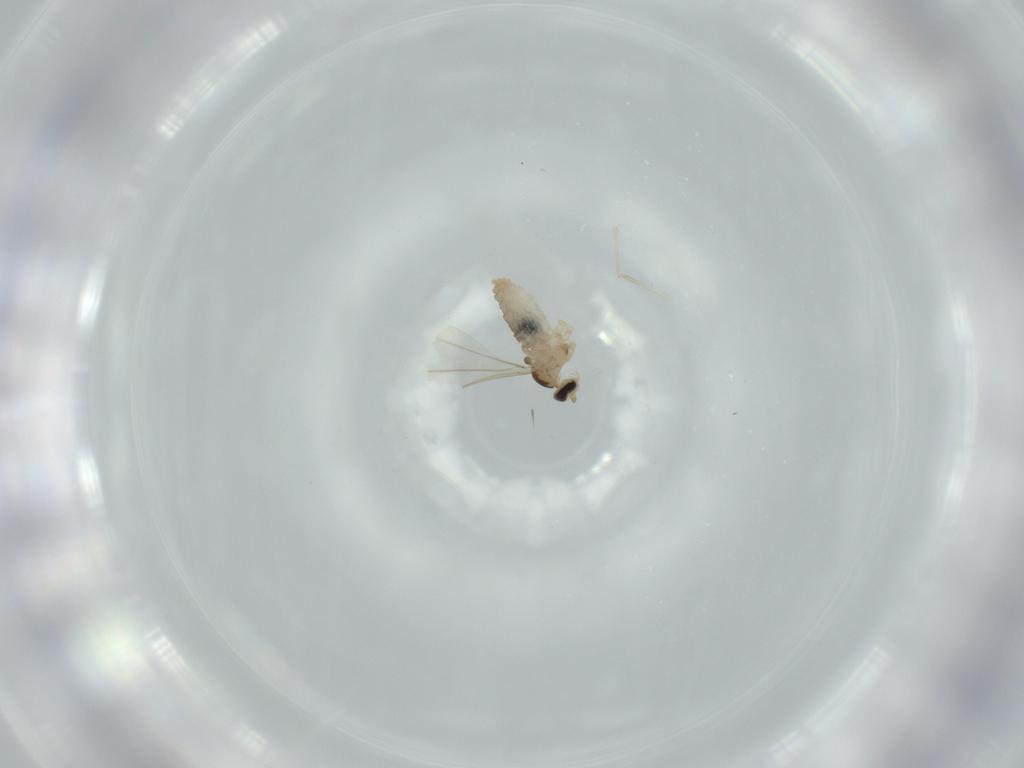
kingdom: Animalia
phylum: Arthropoda
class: Insecta
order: Diptera
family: Cecidomyiidae
